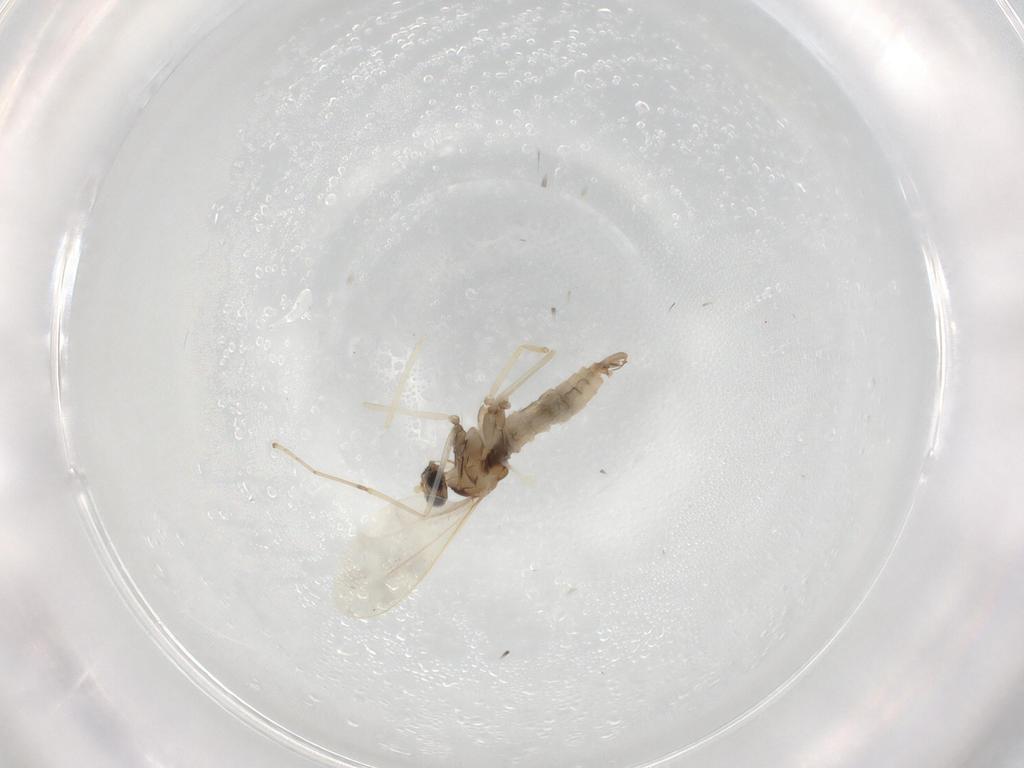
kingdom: Animalia
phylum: Arthropoda
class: Insecta
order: Diptera
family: Cecidomyiidae
